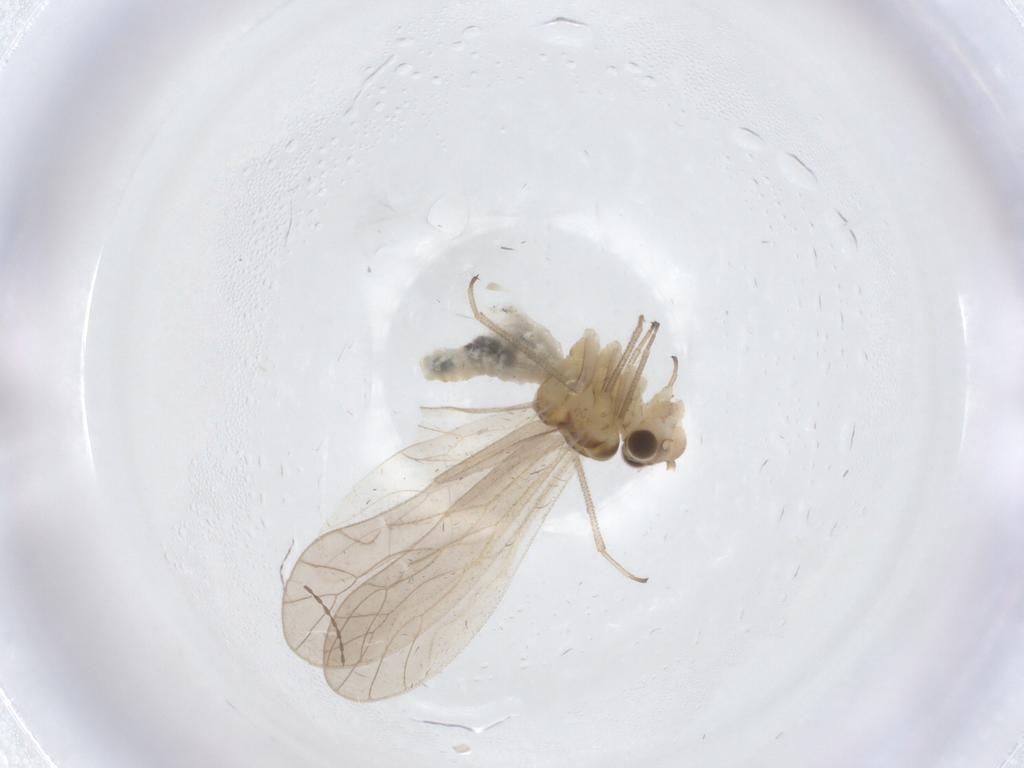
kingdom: Animalia
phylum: Arthropoda
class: Insecta
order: Psocodea
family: Caeciliusidae
